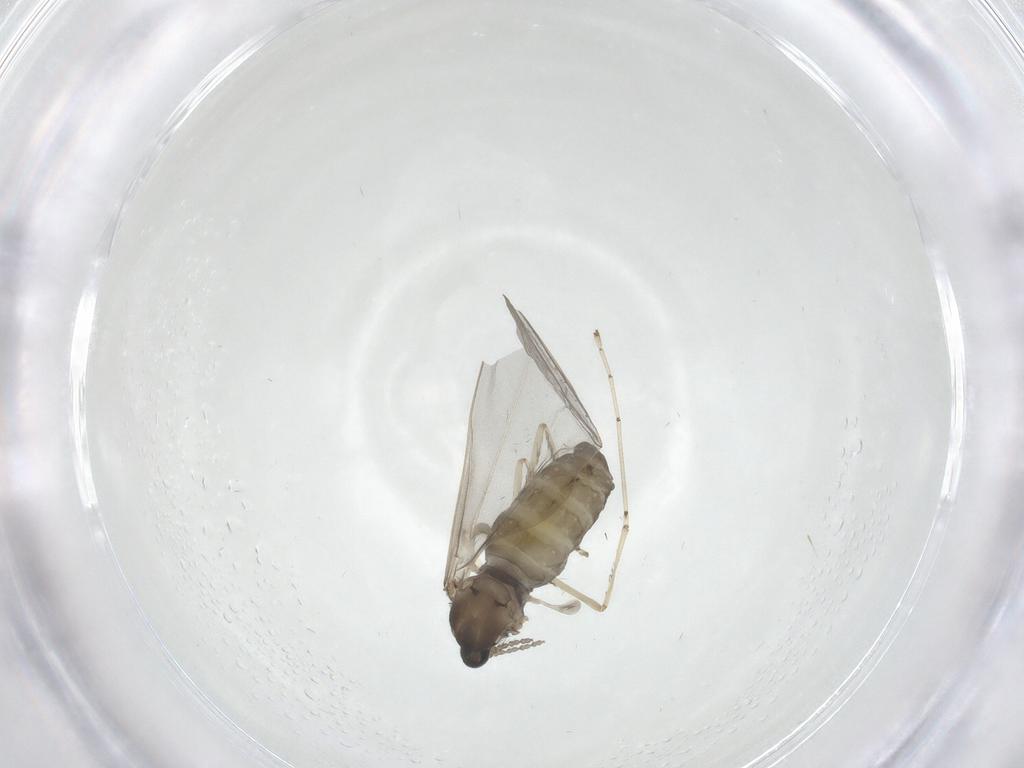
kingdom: Animalia
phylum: Arthropoda
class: Insecta
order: Diptera
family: Cecidomyiidae
